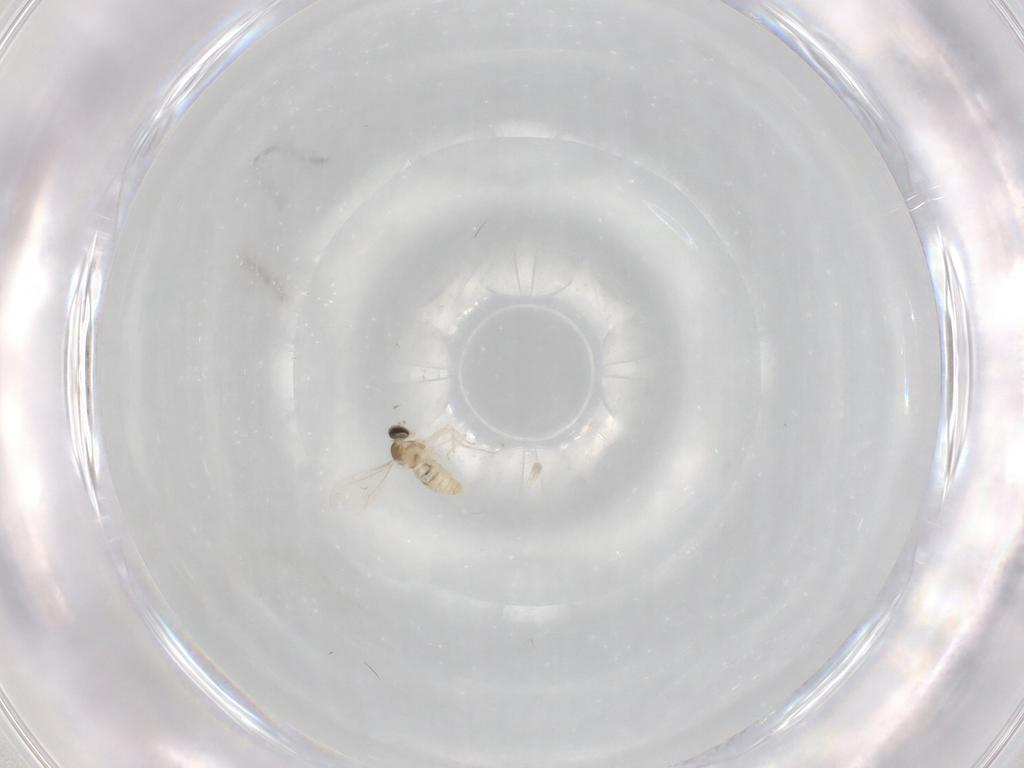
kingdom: Animalia
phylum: Arthropoda
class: Insecta
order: Diptera
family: Cecidomyiidae
